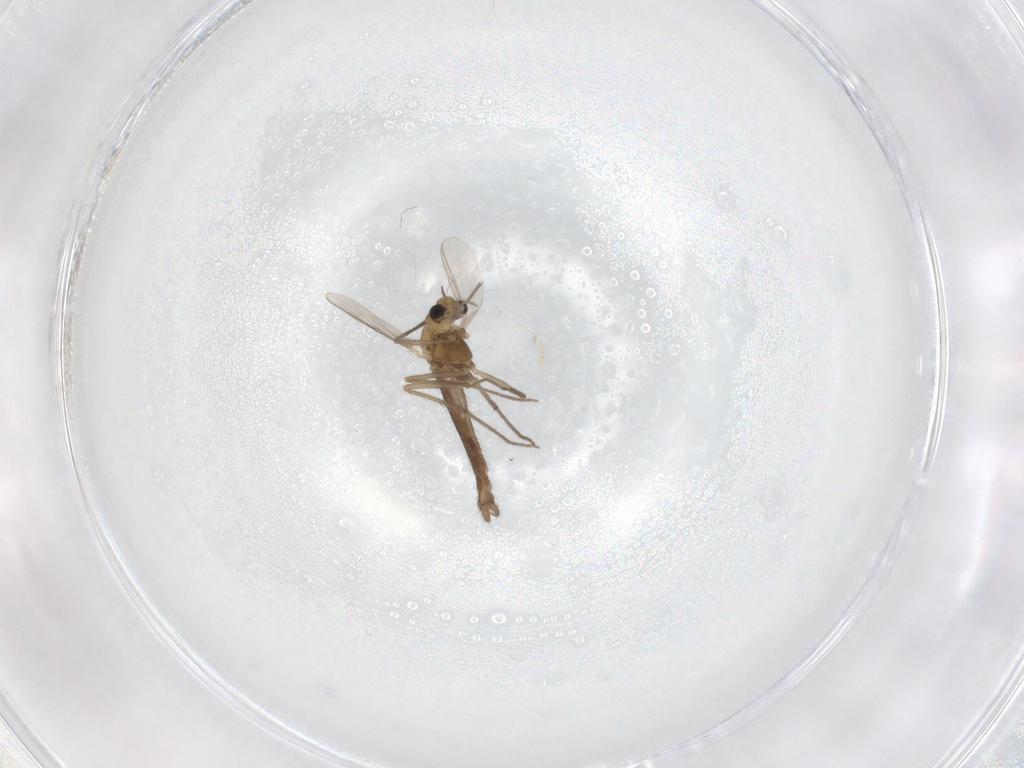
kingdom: Animalia
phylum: Arthropoda
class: Insecta
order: Diptera
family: Chironomidae
